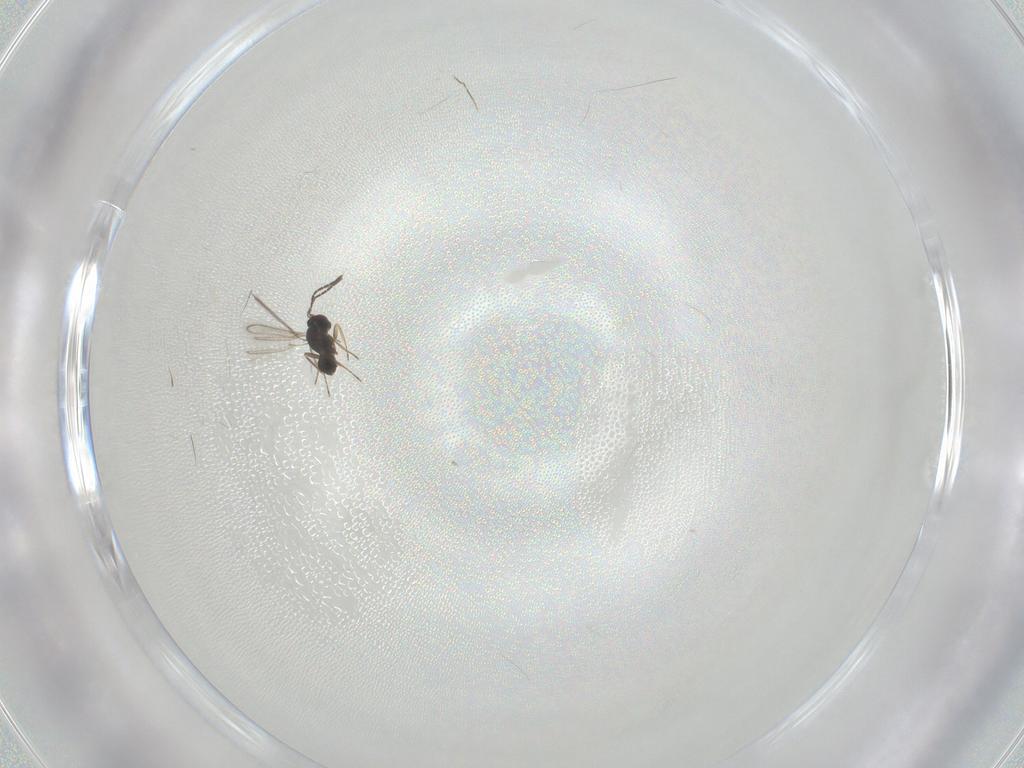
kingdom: Animalia
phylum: Arthropoda
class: Insecta
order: Hymenoptera
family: Mymaridae
